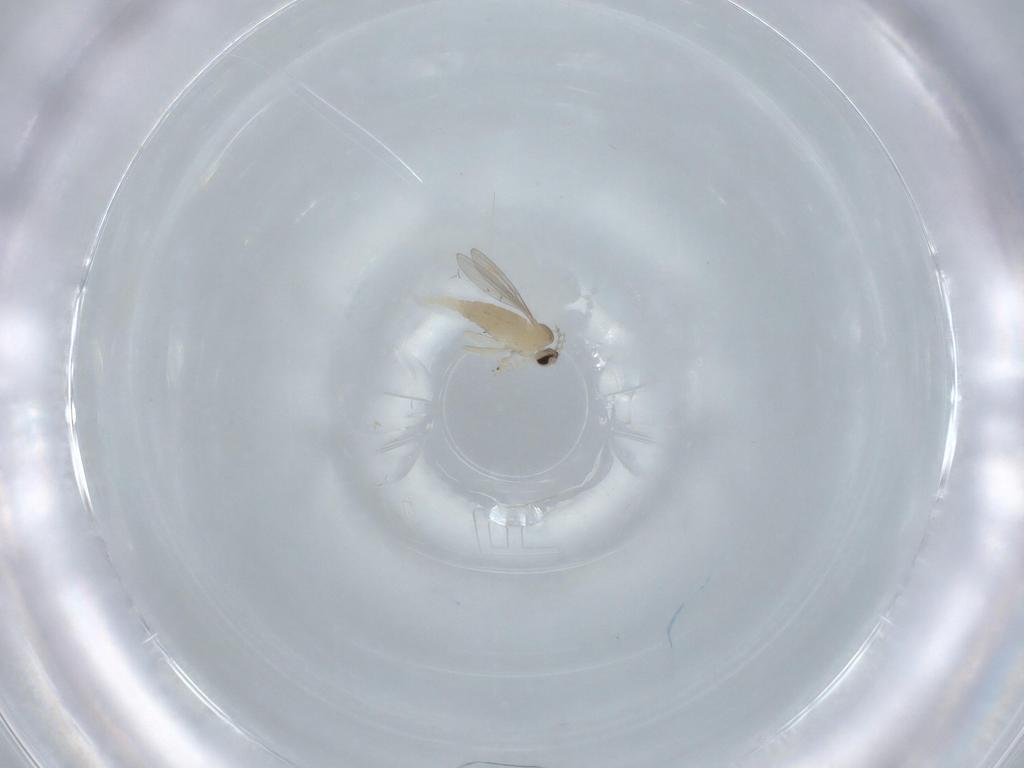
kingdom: Animalia
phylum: Arthropoda
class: Insecta
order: Diptera
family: Cecidomyiidae
